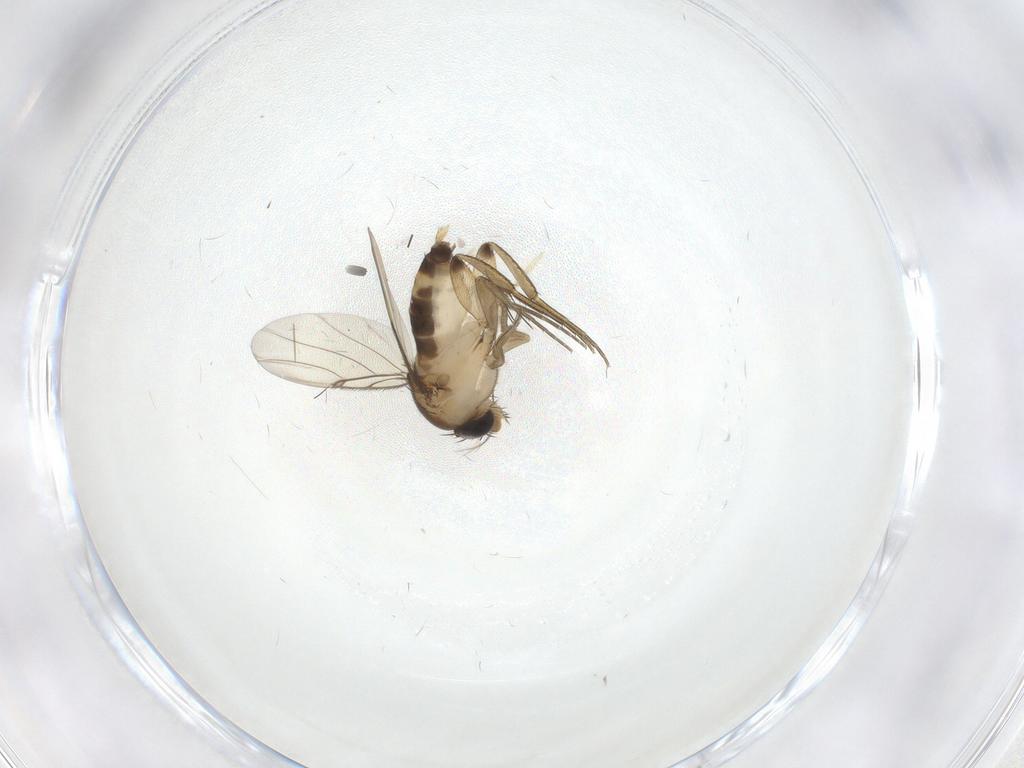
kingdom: Animalia
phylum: Arthropoda
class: Insecta
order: Diptera
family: Psychodidae
